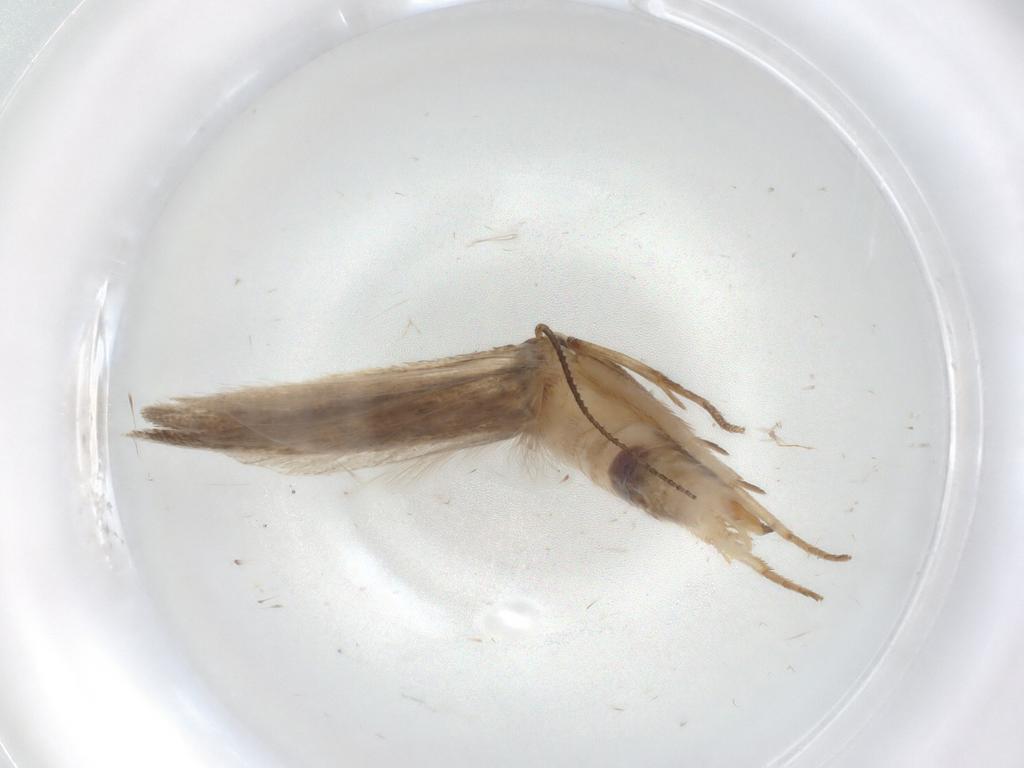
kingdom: Animalia
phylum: Arthropoda
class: Insecta
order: Lepidoptera
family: Gelechiidae
